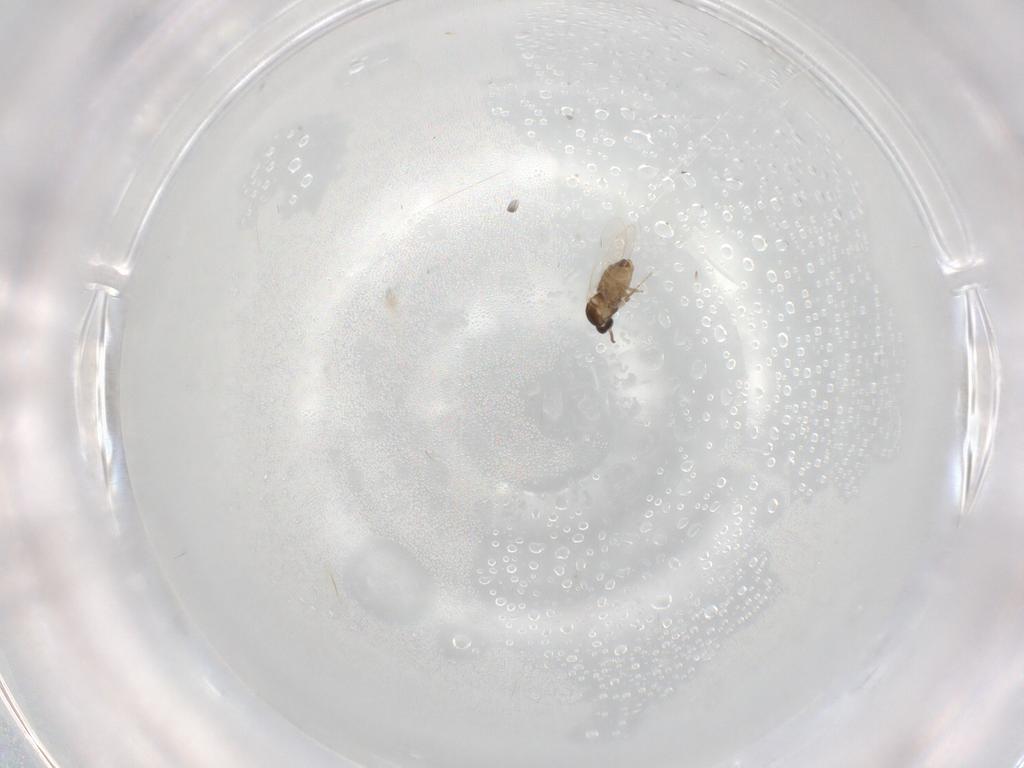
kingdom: Animalia
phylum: Arthropoda
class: Insecta
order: Diptera
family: Cecidomyiidae
